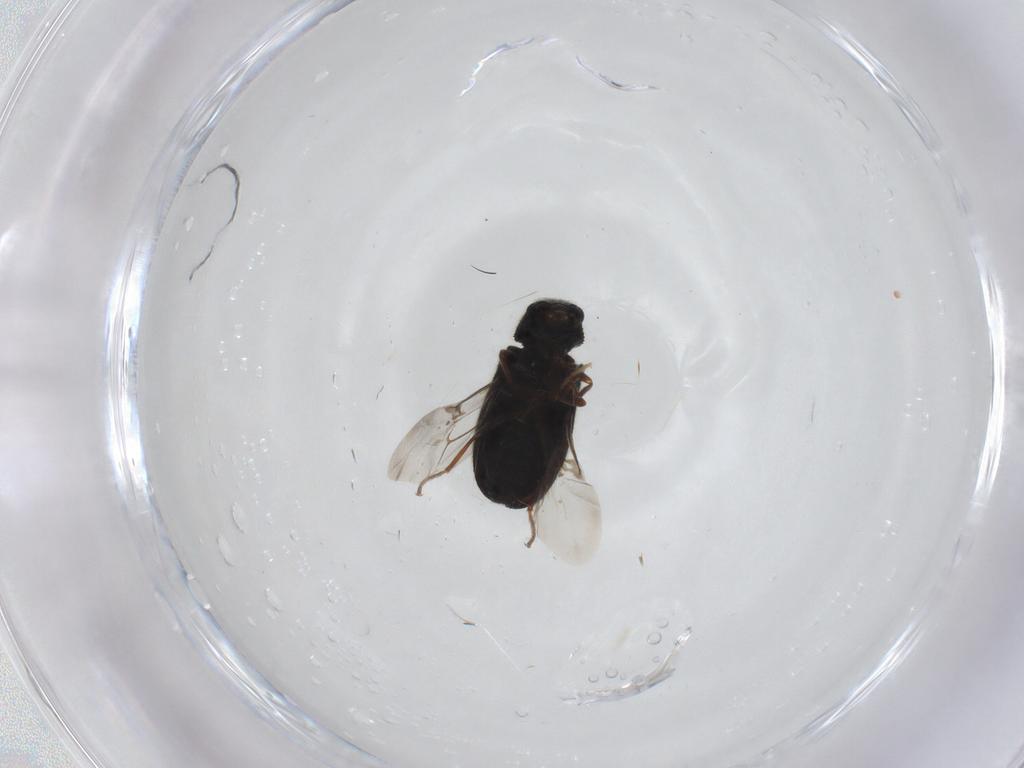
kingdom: Animalia
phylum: Arthropoda
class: Insecta
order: Coleoptera
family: Melyridae
